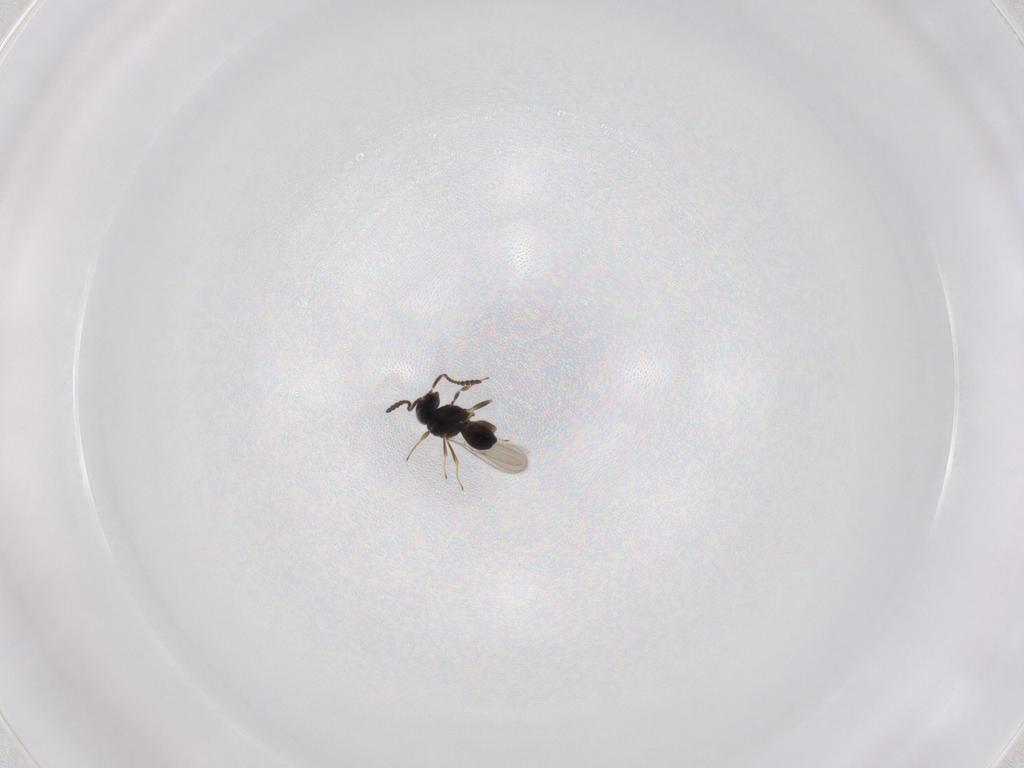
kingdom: Animalia
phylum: Arthropoda
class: Insecta
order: Hymenoptera
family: Scelionidae
